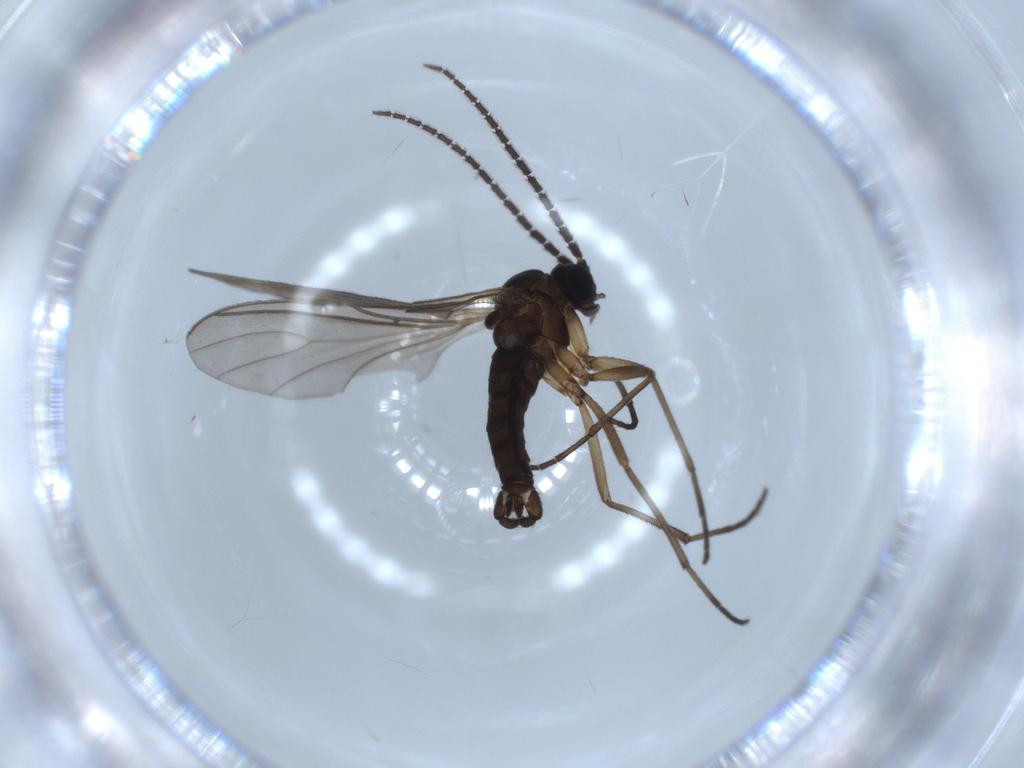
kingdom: Animalia
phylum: Arthropoda
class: Insecta
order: Diptera
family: Sciaridae
